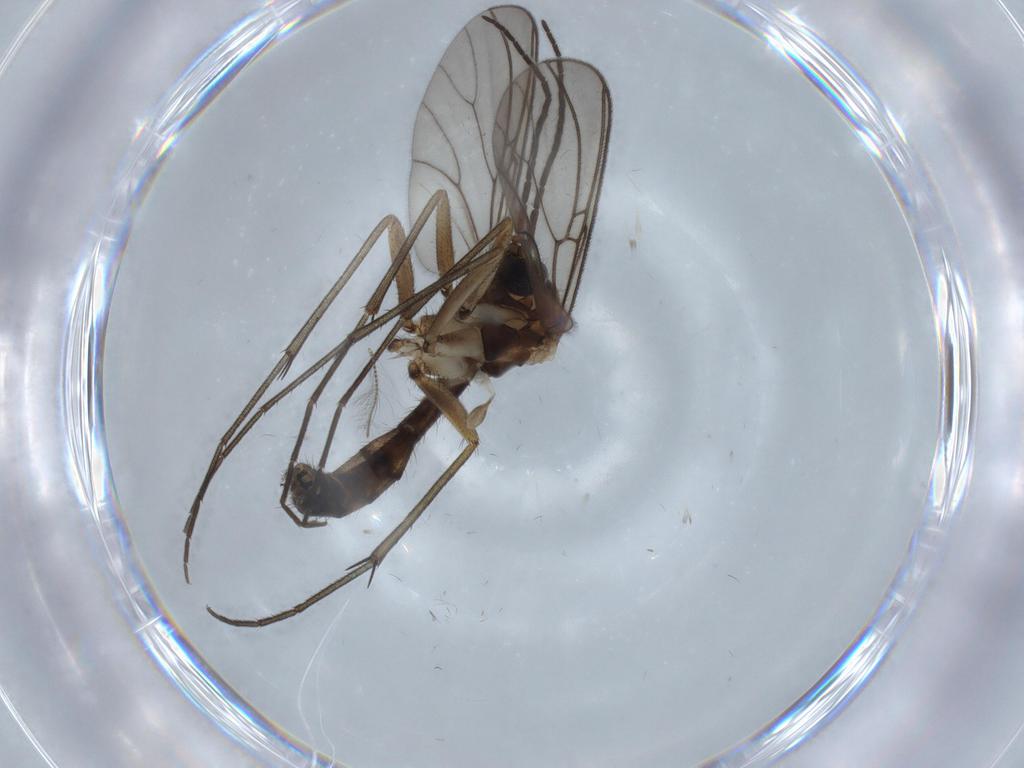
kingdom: Animalia
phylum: Arthropoda
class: Insecta
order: Diptera
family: Mycetophilidae
